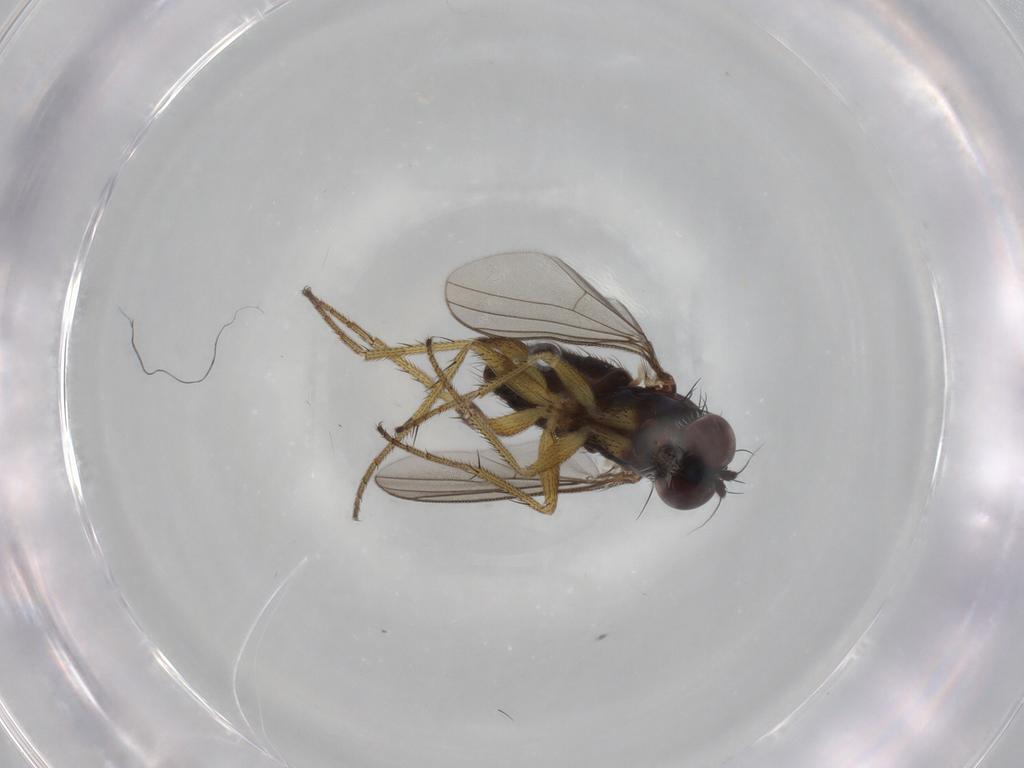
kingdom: Animalia
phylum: Arthropoda
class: Insecta
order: Diptera
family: Dolichopodidae
